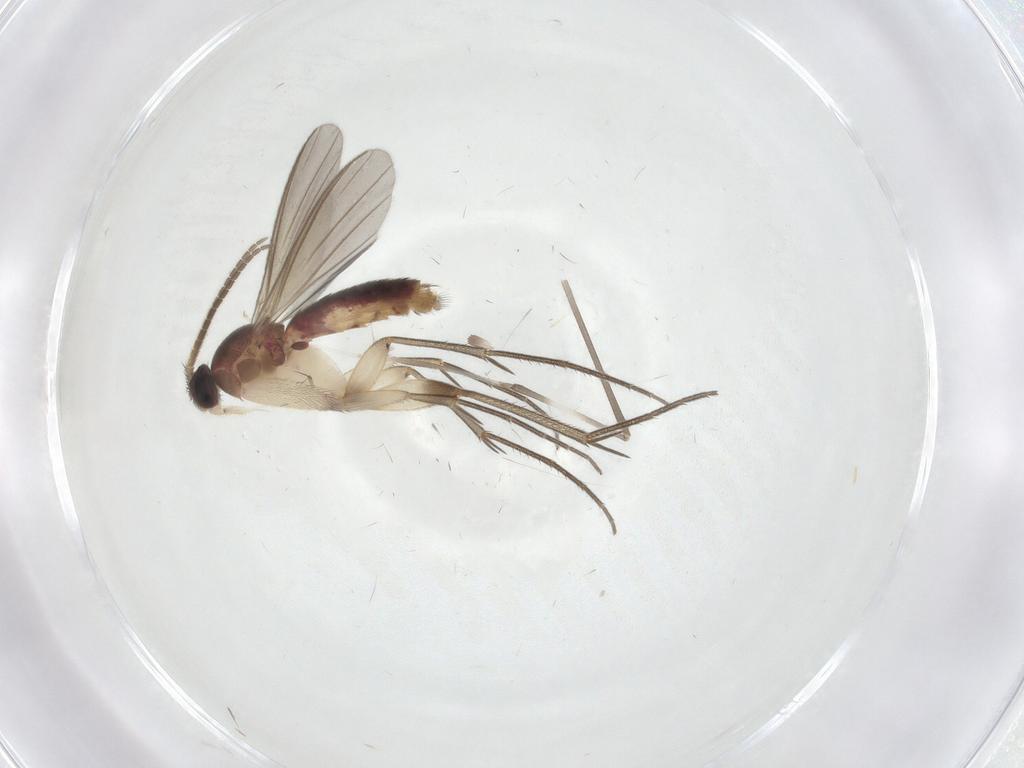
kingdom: Animalia
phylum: Arthropoda
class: Insecta
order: Diptera
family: Mycetophilidae
